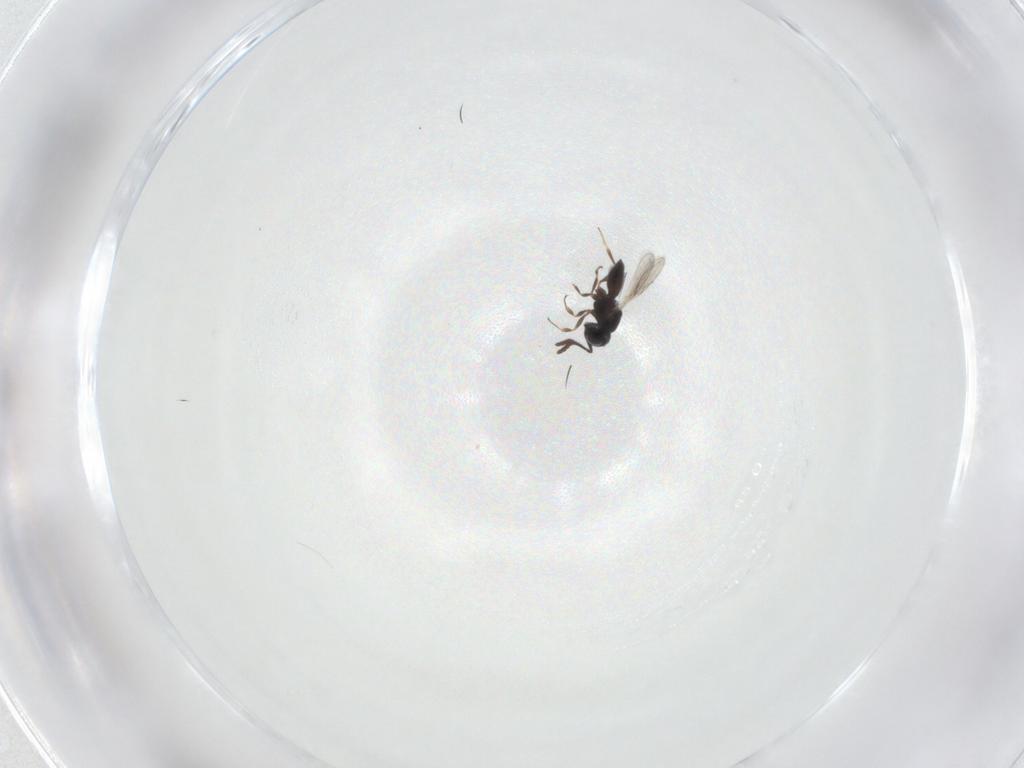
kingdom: Animalia
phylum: Arthropoda
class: Insecta
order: Hymenoptera
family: Scelionidae
